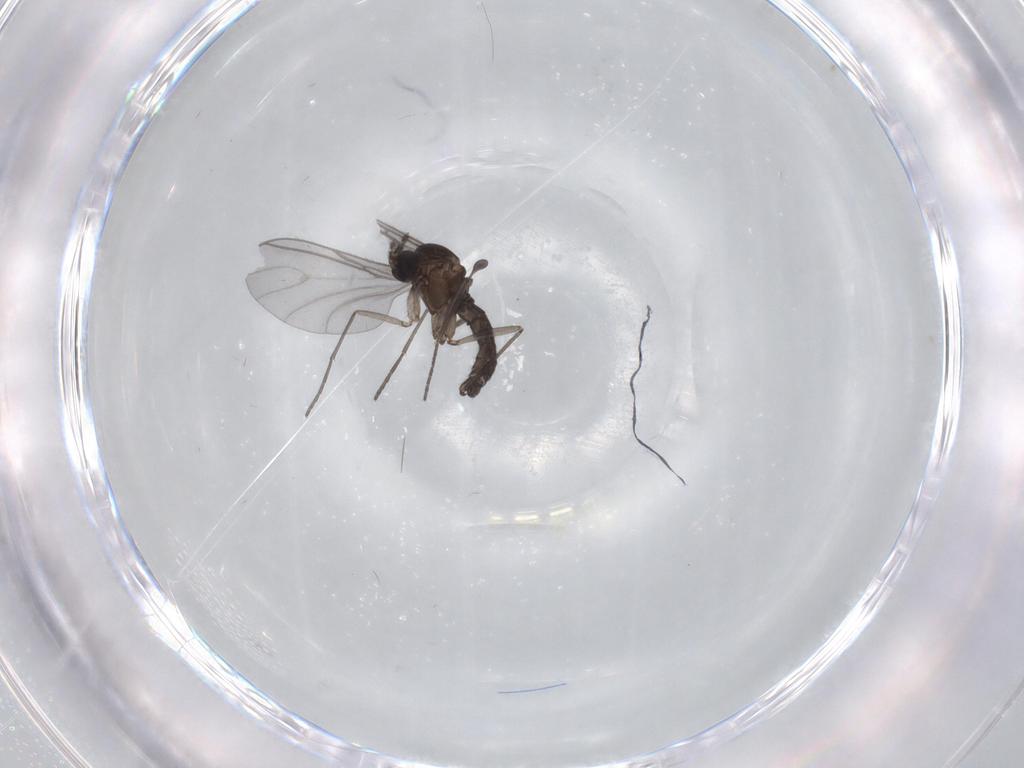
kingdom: Animalia
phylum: Arthropoda
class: Insecta
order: Diptera
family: Sciaridae
